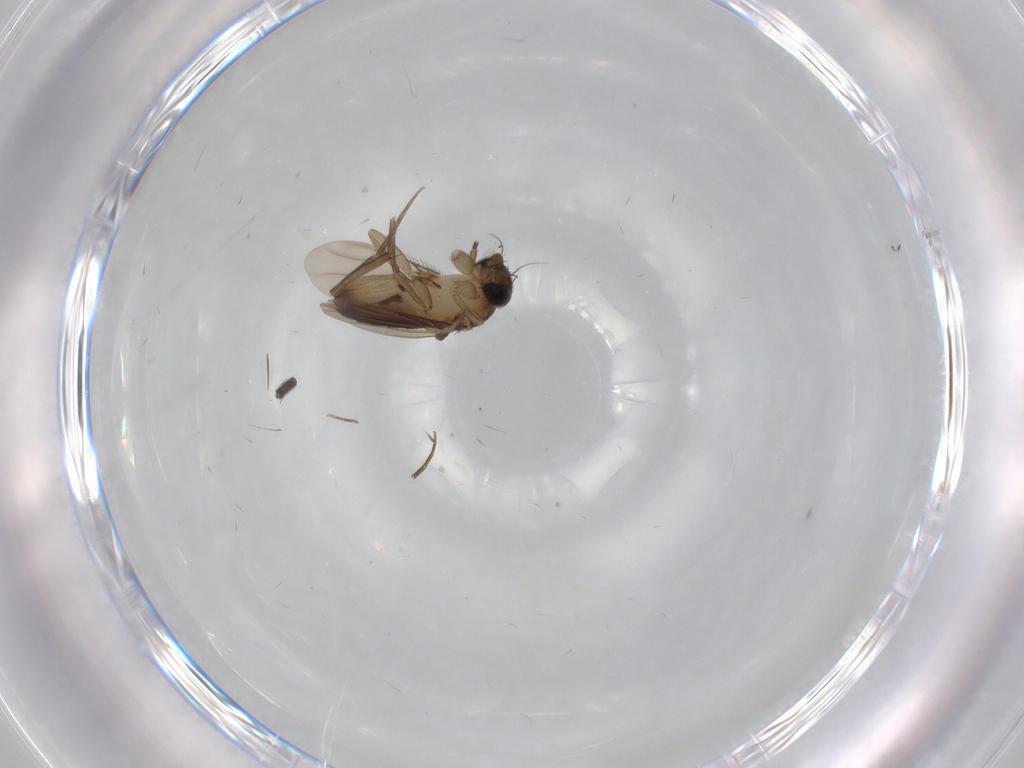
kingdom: Animalia
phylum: Arthropoda
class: Insecta
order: Diptera
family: Phoridae
